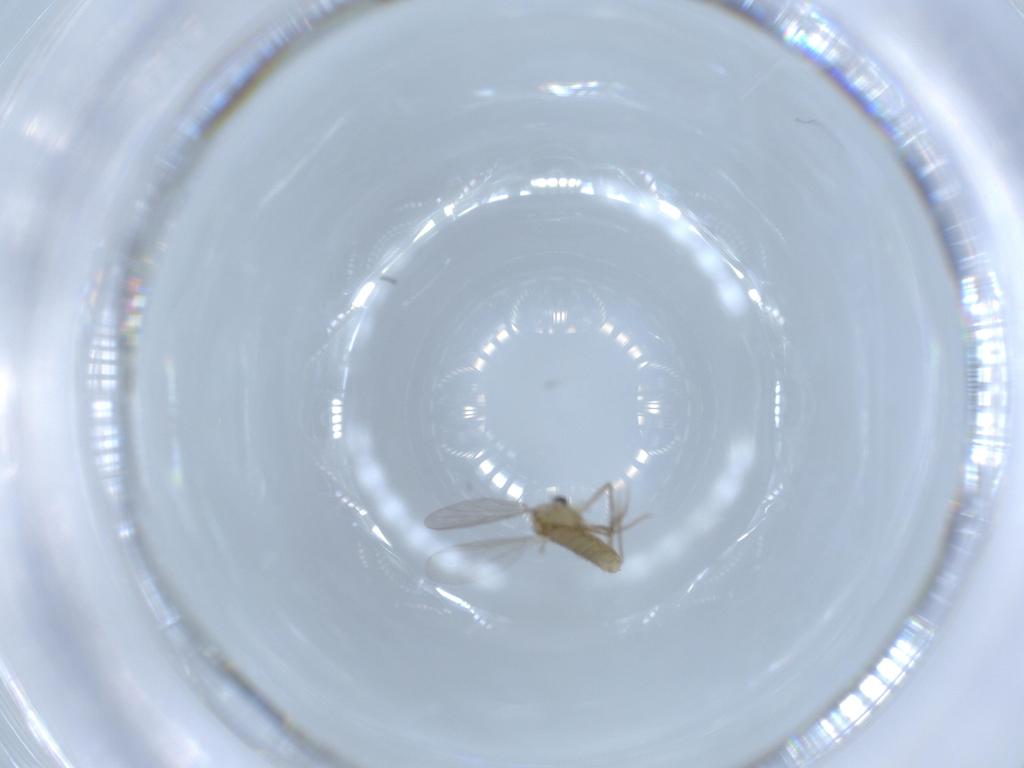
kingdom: Animalia
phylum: Arthropoda
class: Insecta
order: Diptera
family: Chironomidae
